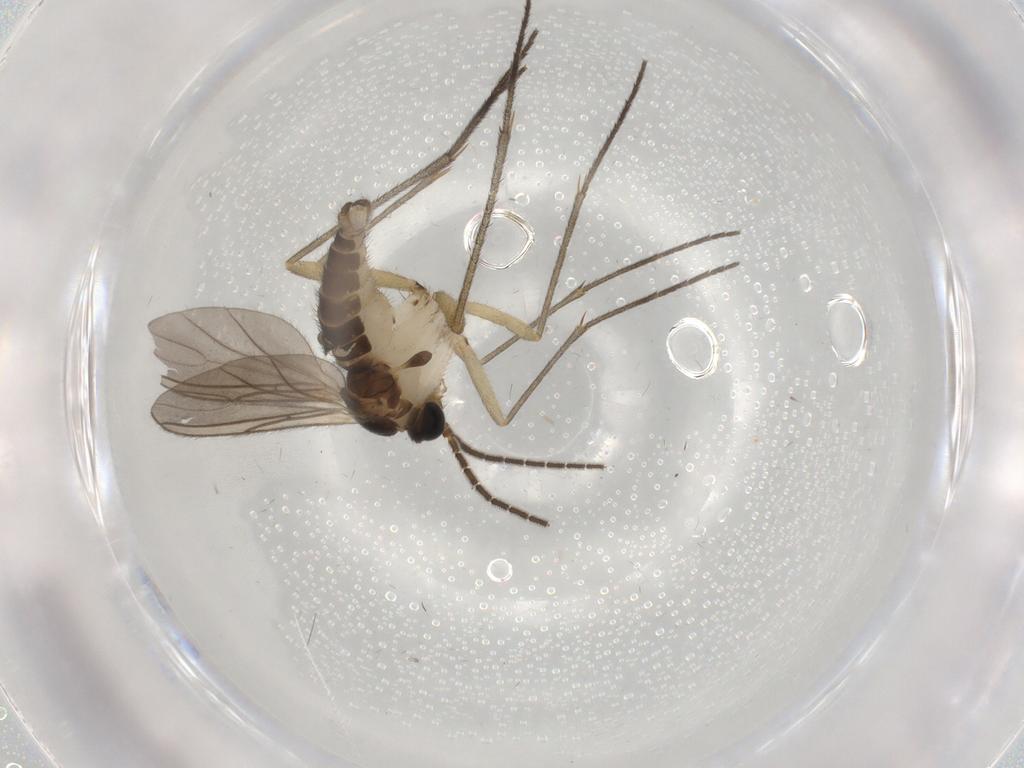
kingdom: Animalia
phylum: Arthropoda
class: Insecta
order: Diptera
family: Sciaridae
